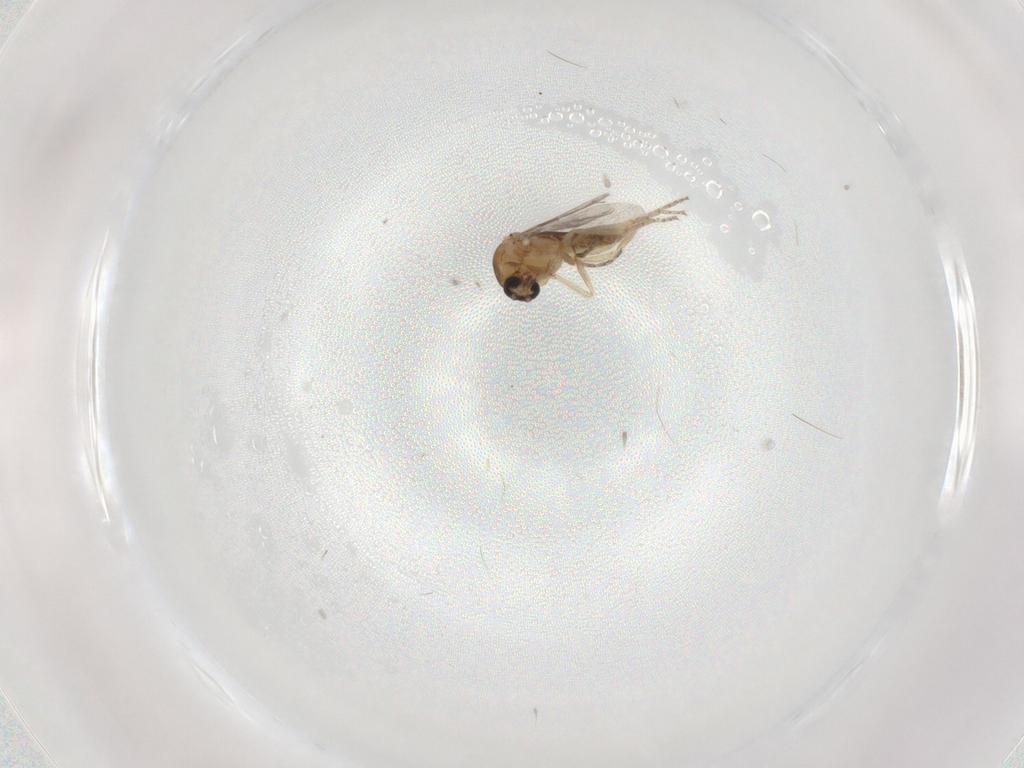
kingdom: Animalia
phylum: Arthropoda
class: Insecta
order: Diptera
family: Ceratopogonidae
